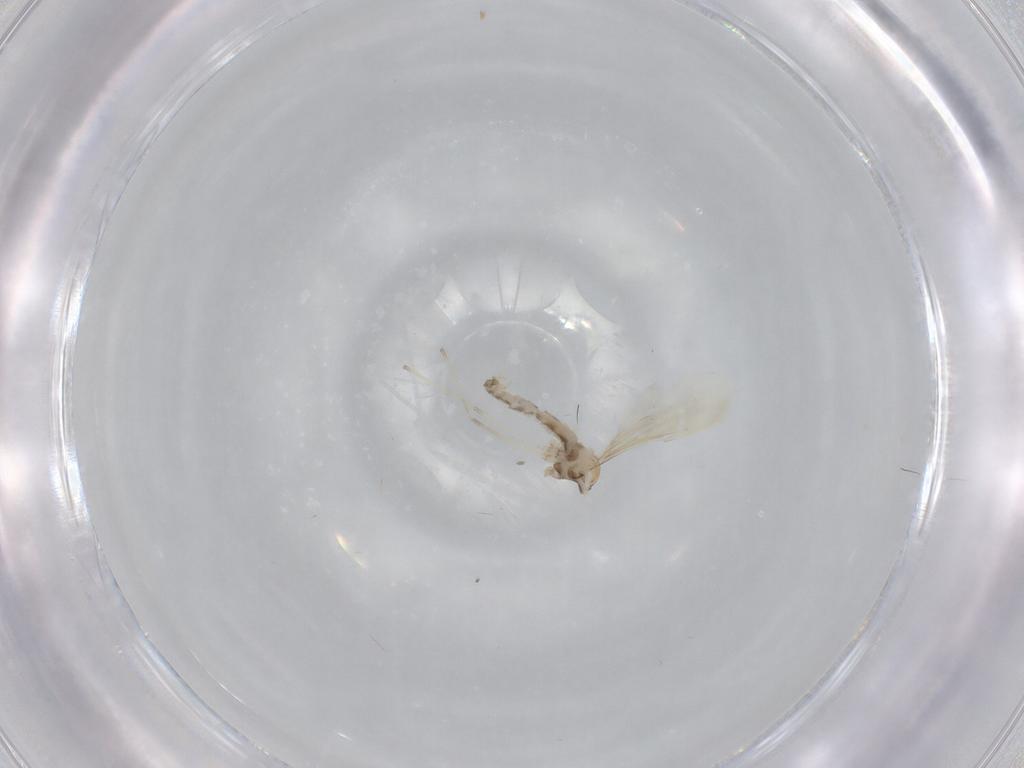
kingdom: Animalia
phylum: Arthropoda
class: Insecta
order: Diptera
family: Cecidomyiidae
